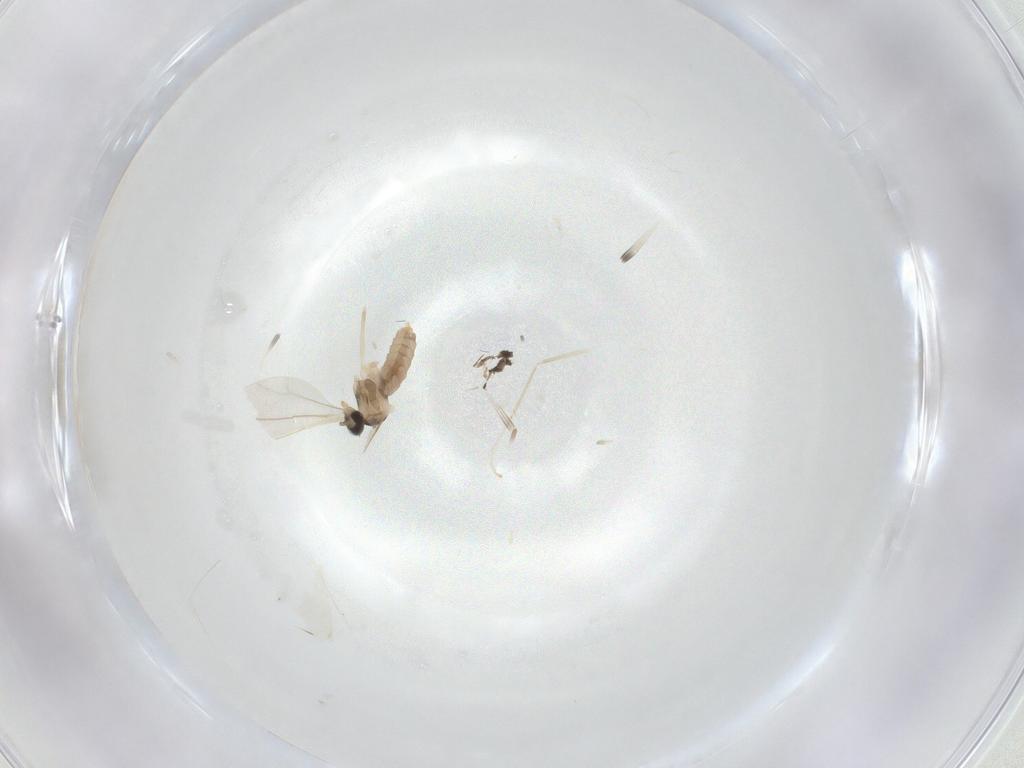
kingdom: Animalia
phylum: Arthropoda
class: Insecta
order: Diptera
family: Cecidomyiidae
